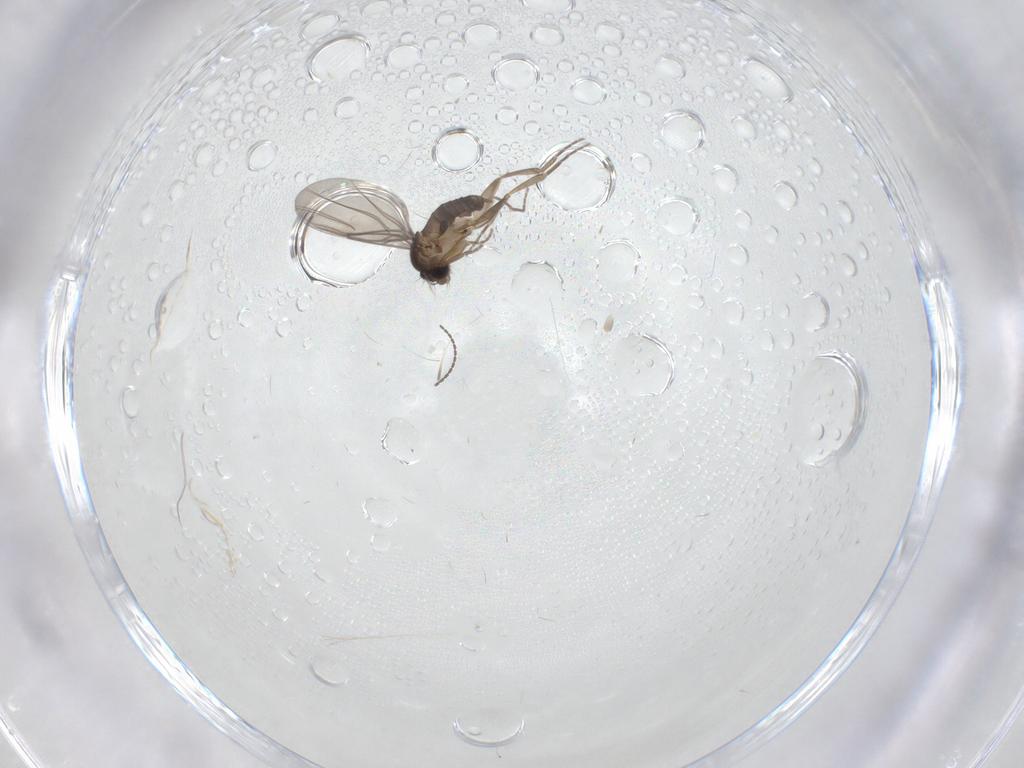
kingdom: Animalia
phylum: Arthropoda
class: Insecta
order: Diptera
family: Cecidomyiidae
